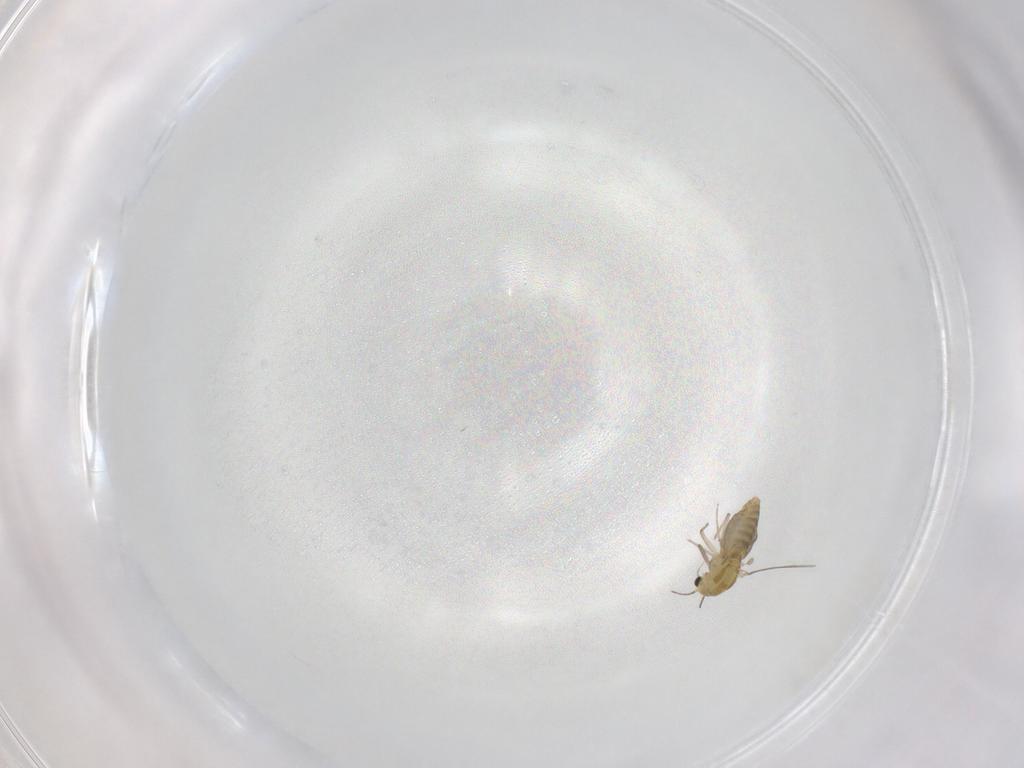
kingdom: Animalia
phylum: Arthropoda
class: Insecta
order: Diptera
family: Chironomidae
